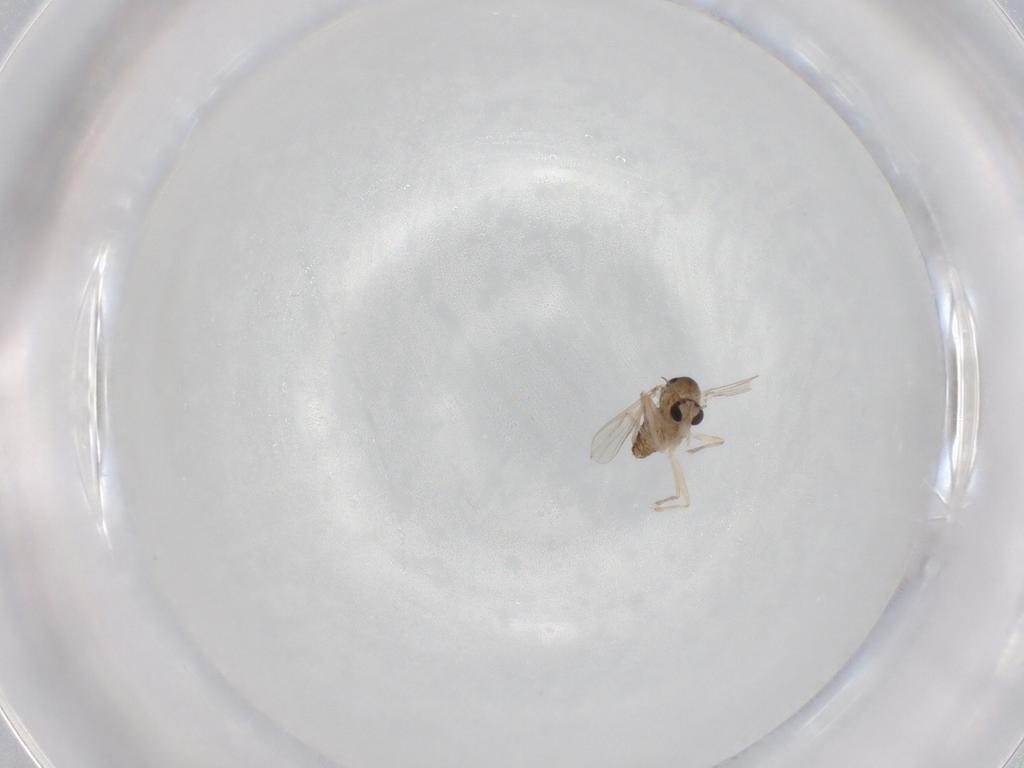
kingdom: Animalia
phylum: Arthropoda
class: Insecta
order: Diptera
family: Chironomidae
